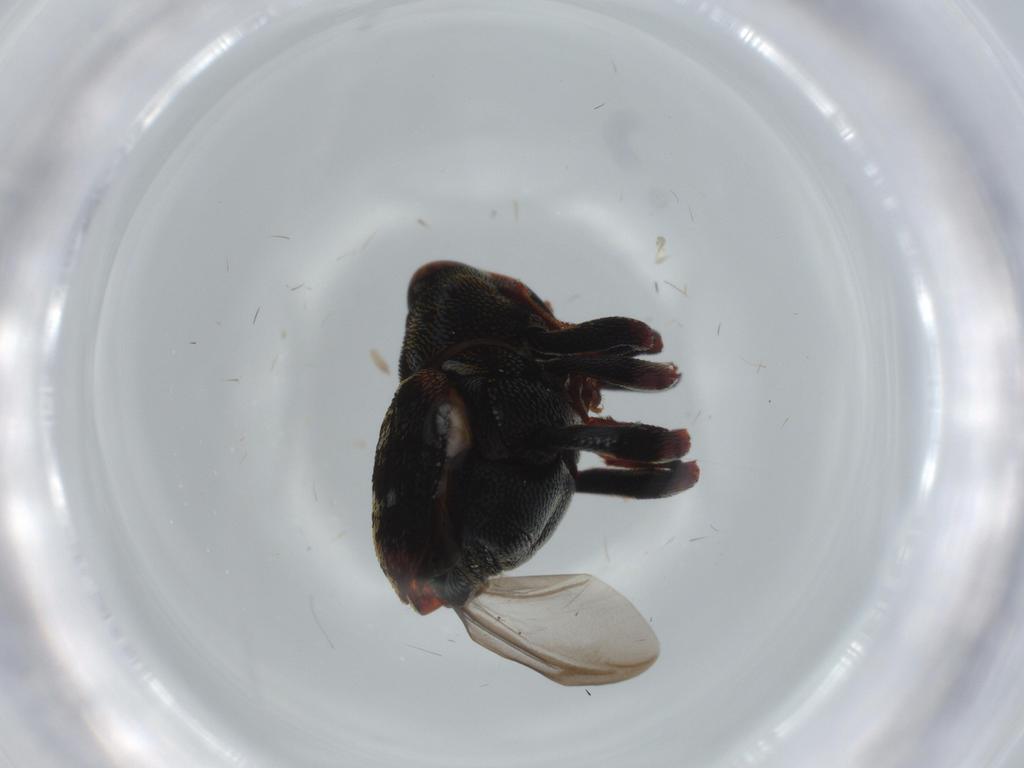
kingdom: Animalia
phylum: Arthropoda
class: Insecta
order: Coleoptera
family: Curculionidae
